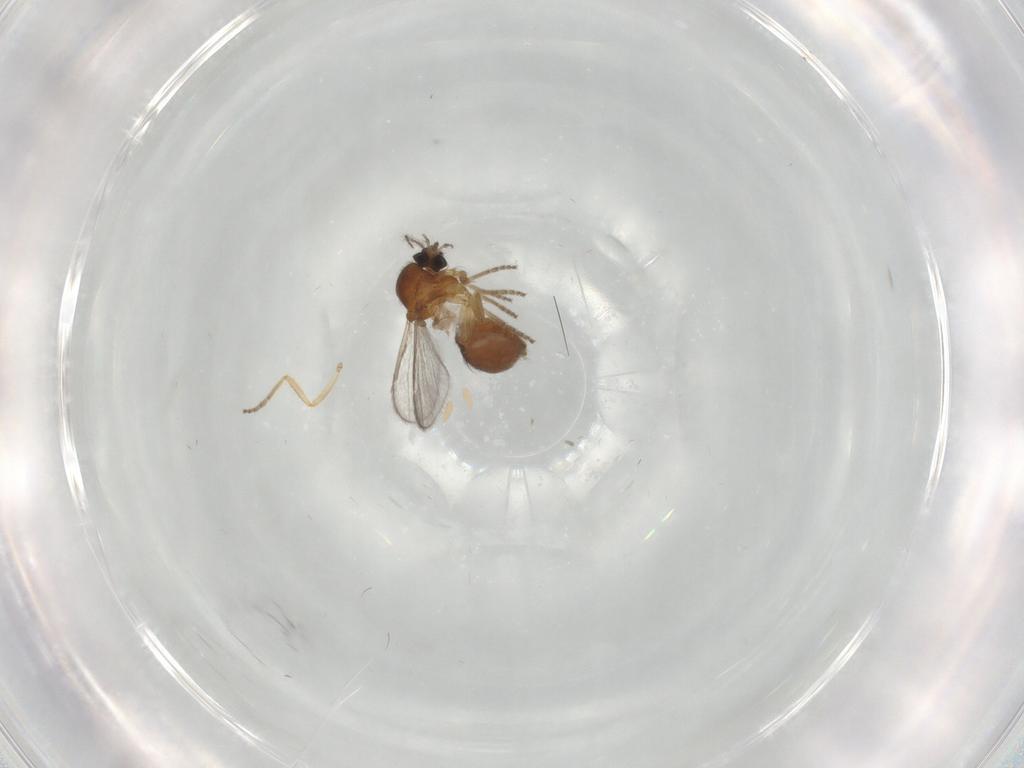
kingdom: Animalia
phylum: Arthropoda
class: Insecta
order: Diptera
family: Ceratopogonidae
